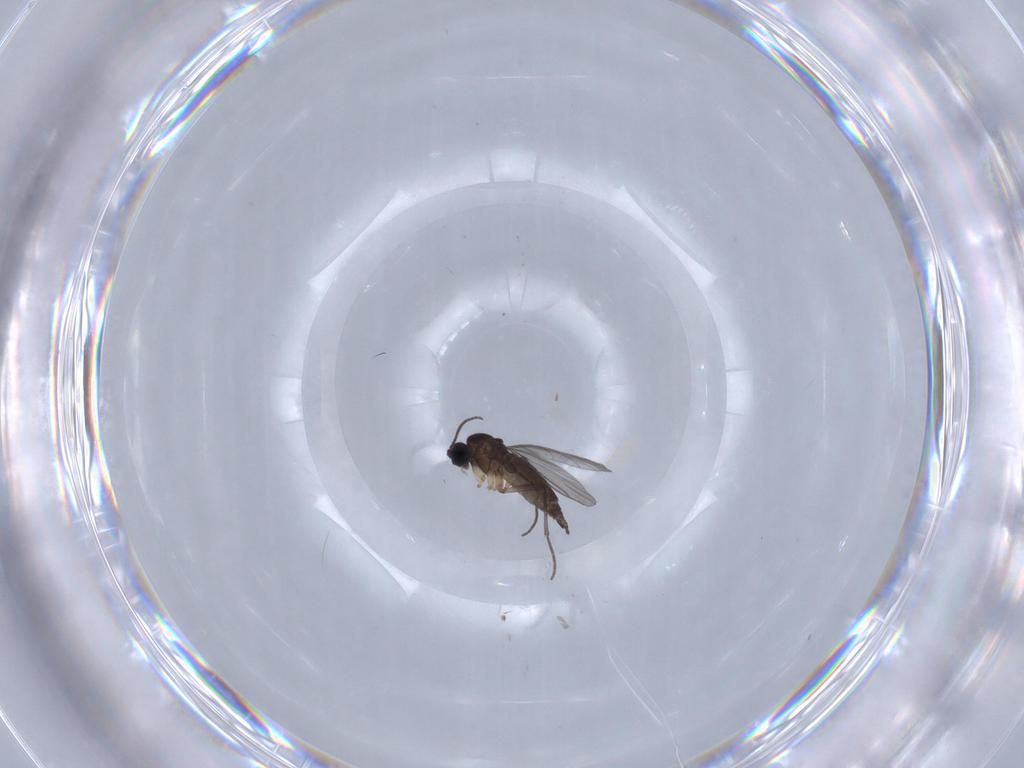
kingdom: Animalia
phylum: Arthropoda
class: Insecta
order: Diptera
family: Sciaridae
